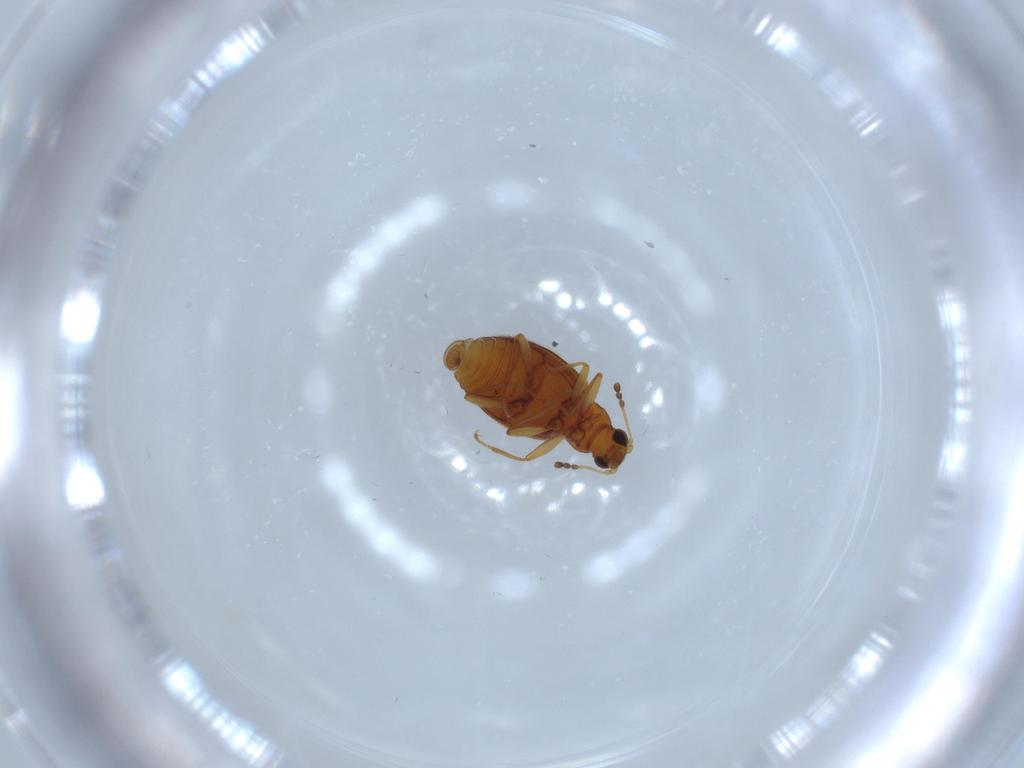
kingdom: Animalia
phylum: Arthropoda
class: Insecta
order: Coleoptera
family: Latridiidae
